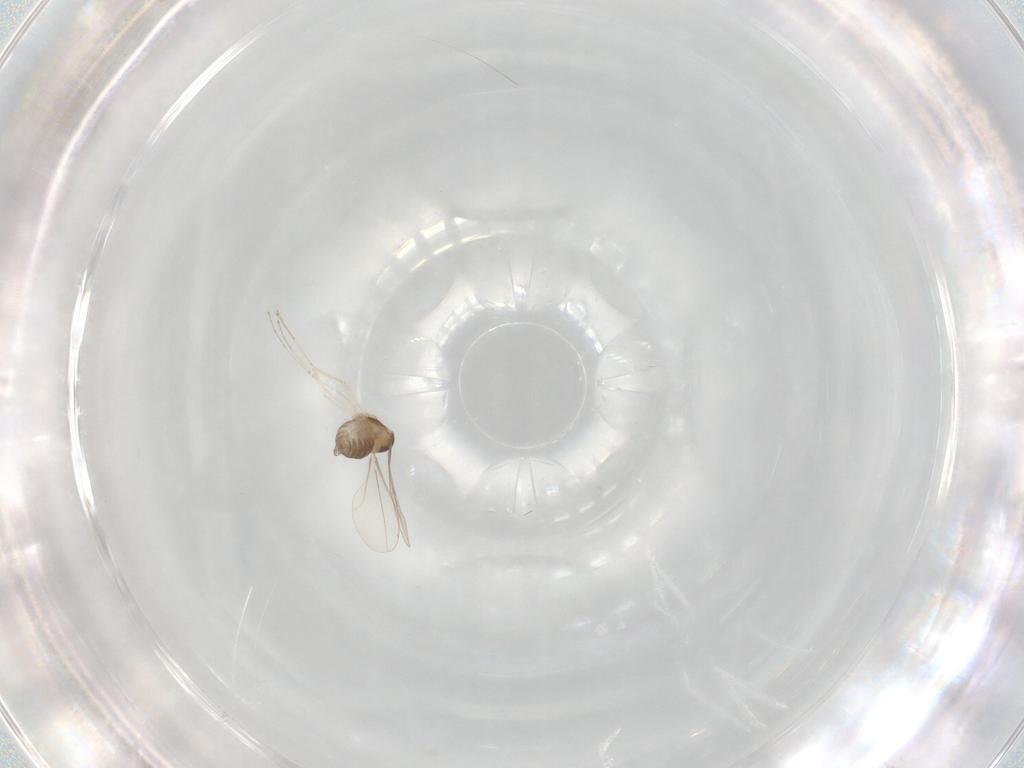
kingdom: Animalia
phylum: Arthropoda
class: Insecta
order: Diptera
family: Cecidomyiidae
